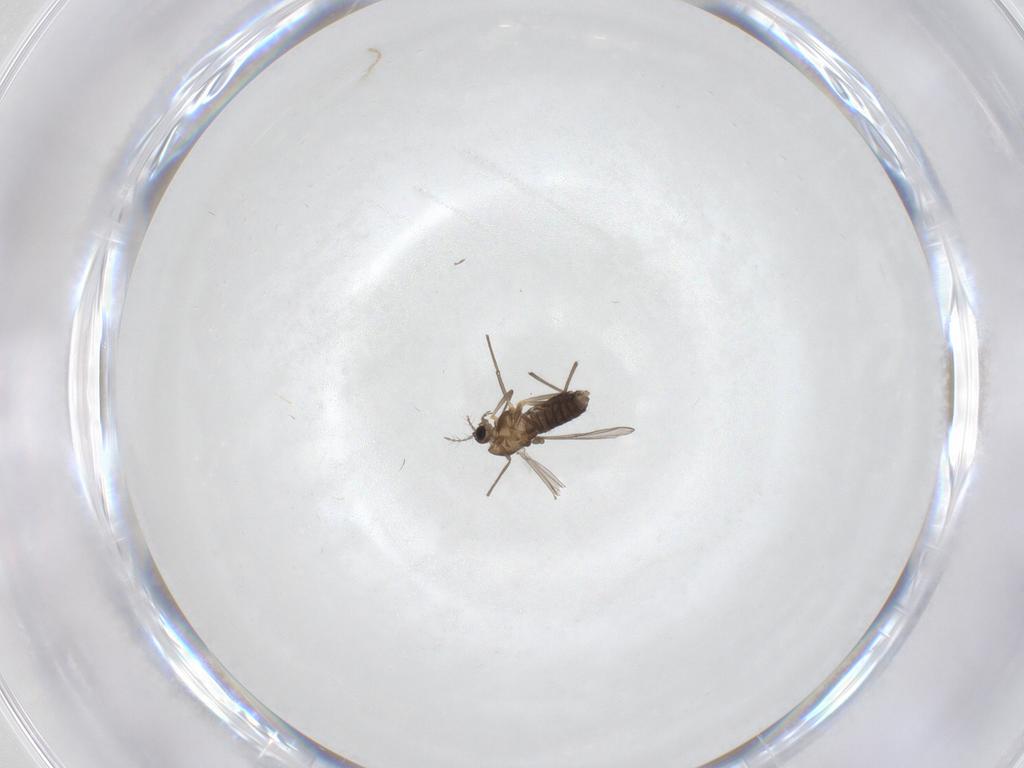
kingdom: Animalia
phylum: Arthropoda
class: Insecta
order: Diptera
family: Chironomidae
